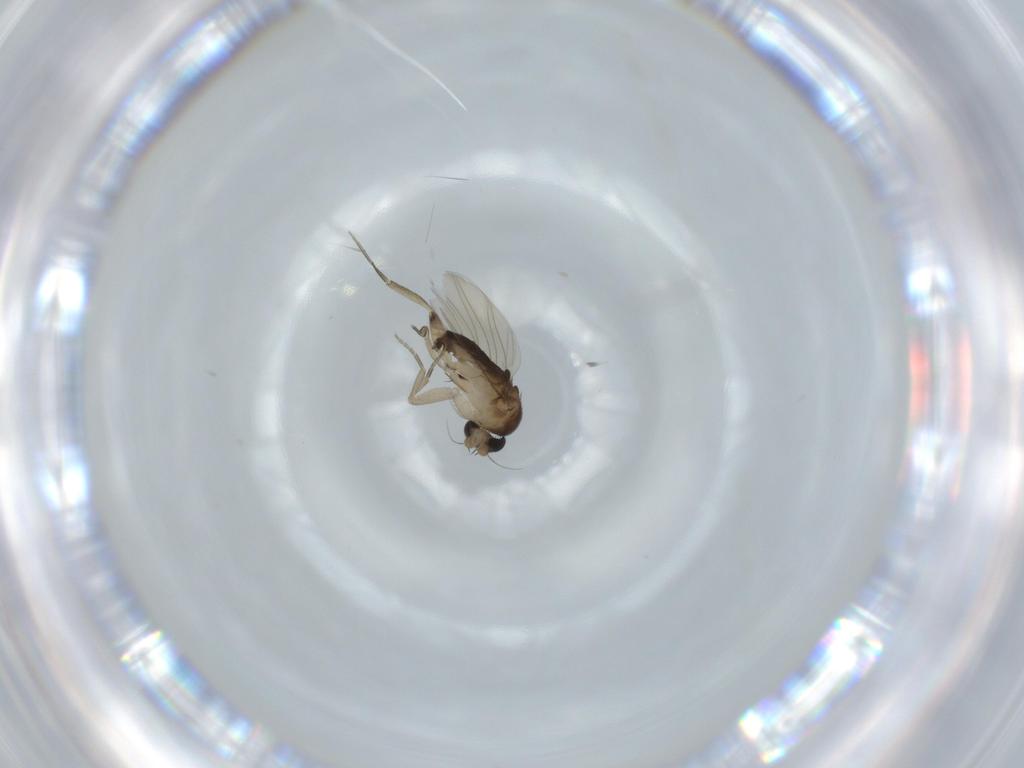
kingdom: Animalia
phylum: Arthropoda
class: Insecta
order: Diptera
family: Phoridae
